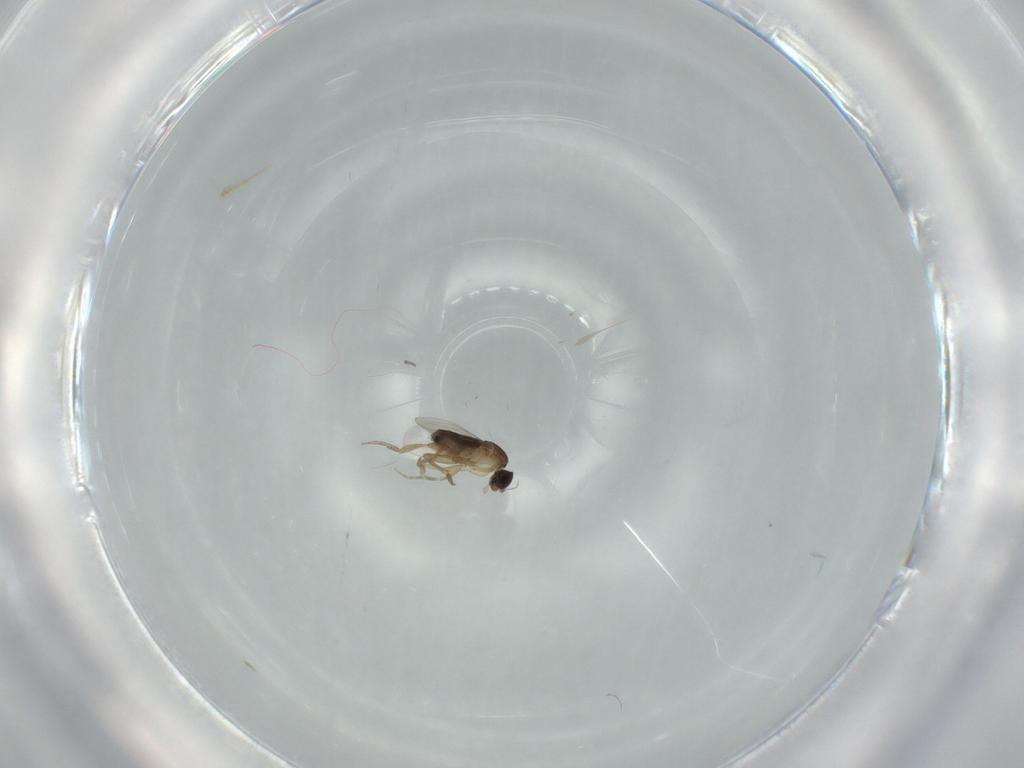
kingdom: Animalia
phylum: Arthropoda
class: Insecta
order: Diptera
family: Phoridae
